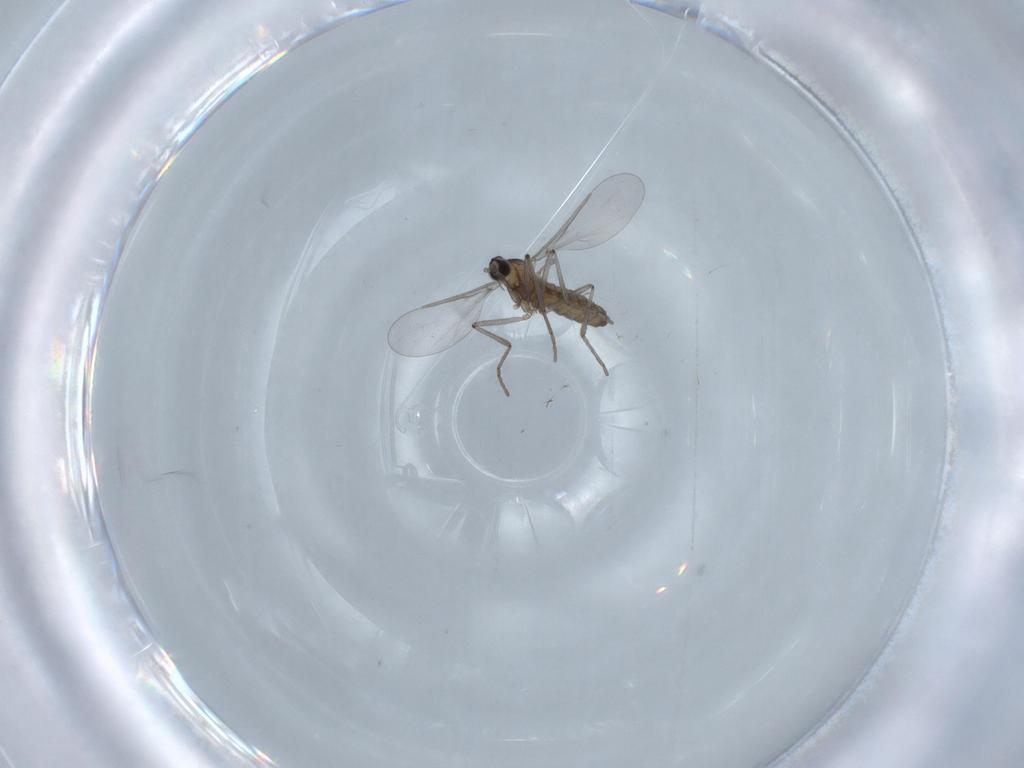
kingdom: Animalia
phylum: Arthropoda
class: Insecta
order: Diptera
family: Cecidomyiidae
